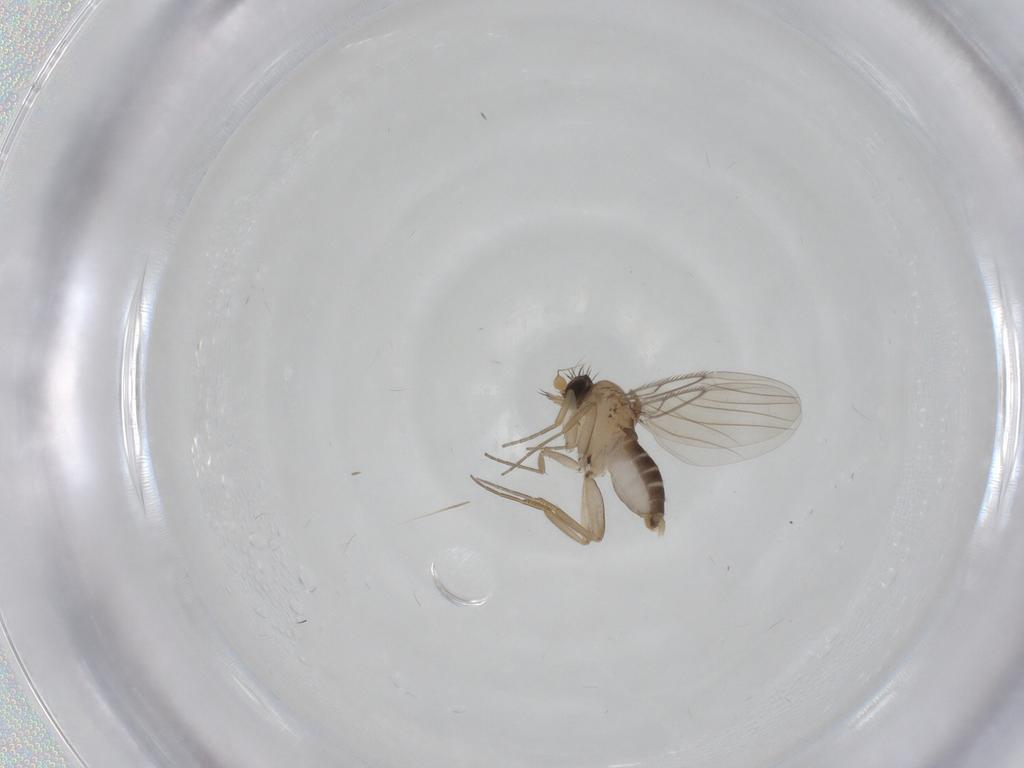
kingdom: Animalia
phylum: Arthropoda
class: Insecta
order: Diptera
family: Phoridae
